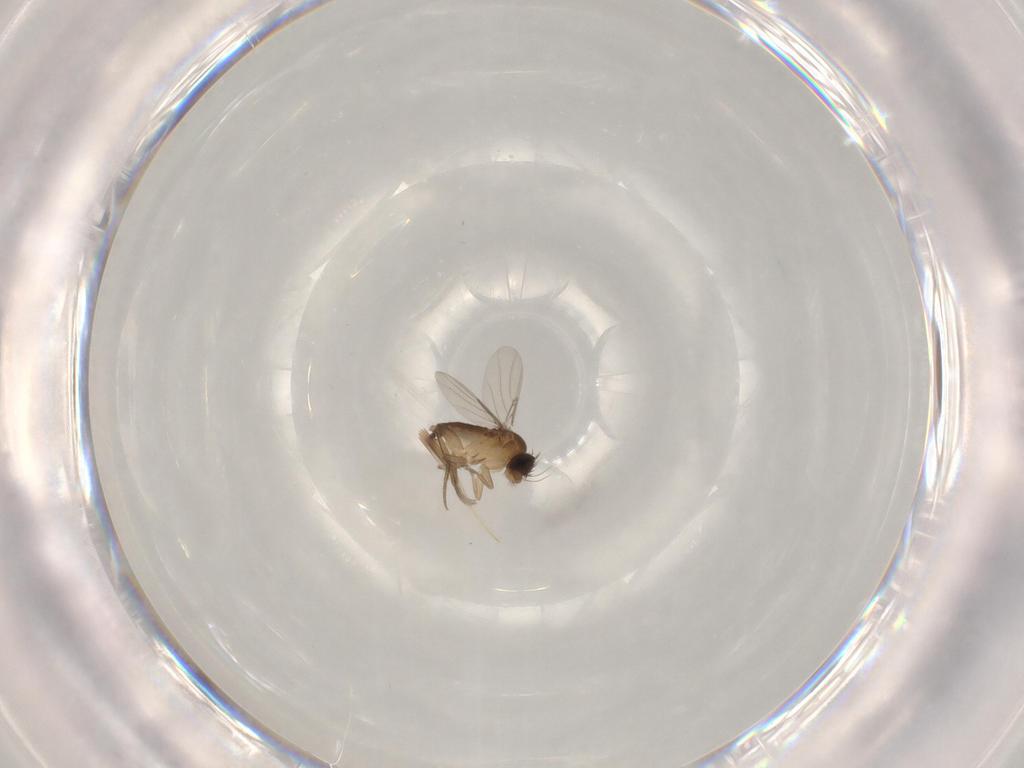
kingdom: Animalia
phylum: Arthropoda
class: Insecta
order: Diptera
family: Phoridae
